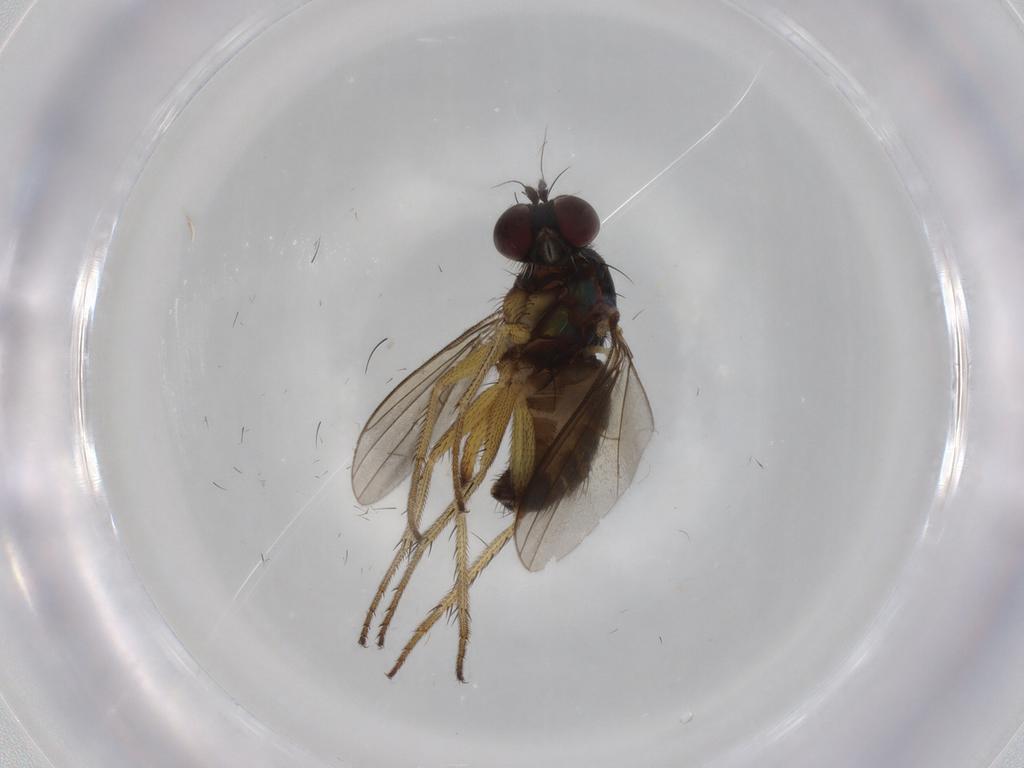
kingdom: Animalia
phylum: Arthropoda
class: Insecta
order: Diptera
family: Dolichopodidae
